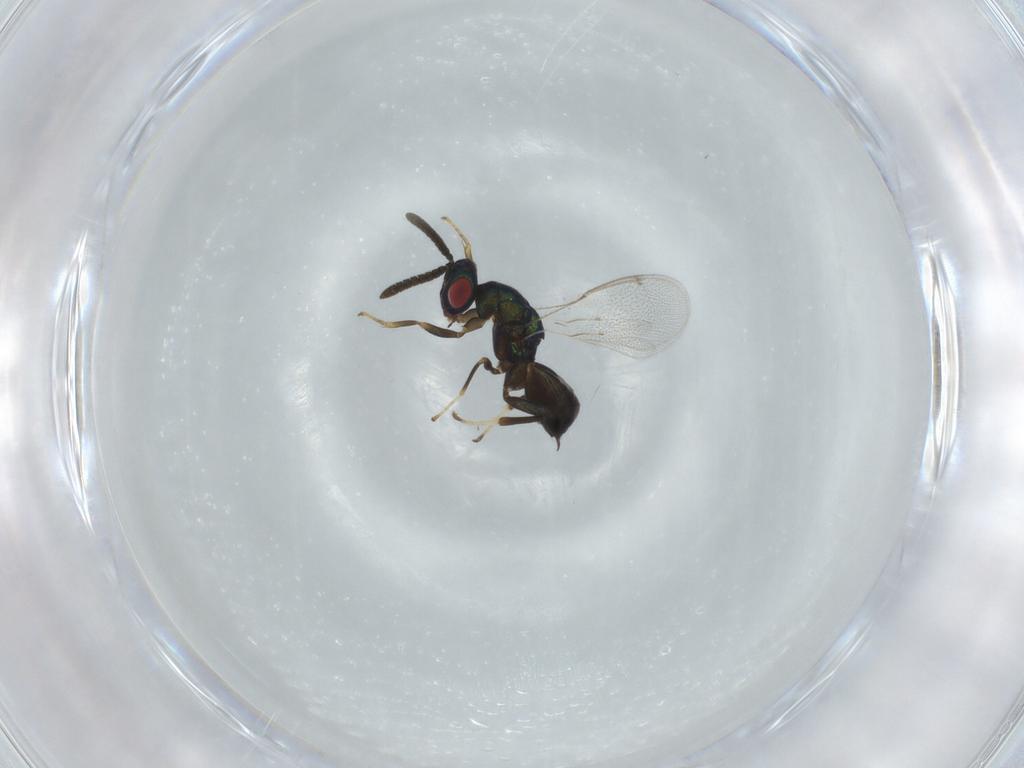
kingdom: Animalia
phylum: Arthropoda
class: Insecta
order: Hymenoptera
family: Torymidae
